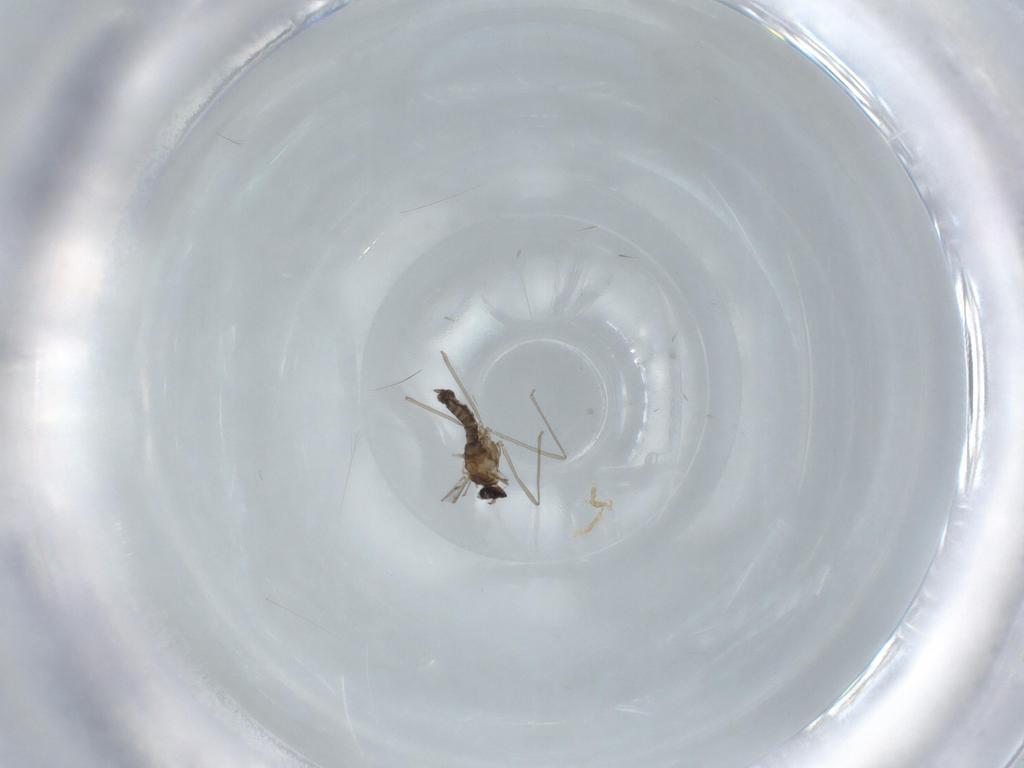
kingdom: Animalia
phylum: Arthropoda
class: Insecta
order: Diptera
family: Cecidomyiidae
